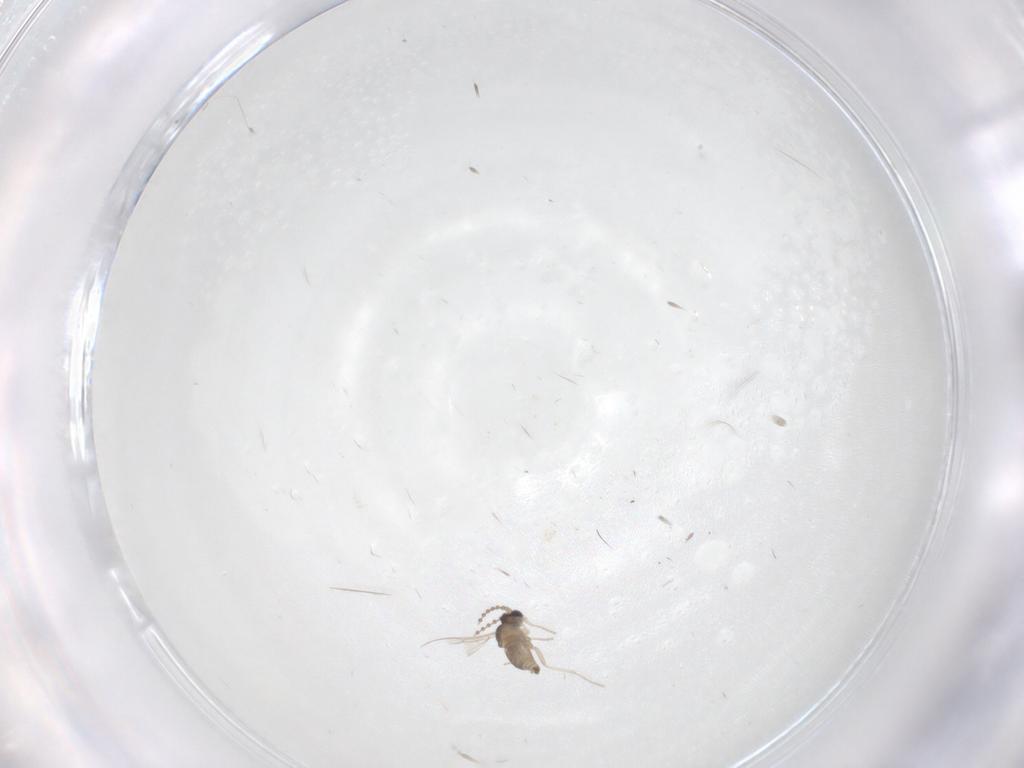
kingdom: Animalia
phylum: Arthropoda
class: Insecta
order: Diptera
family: Cecidomyiidae
